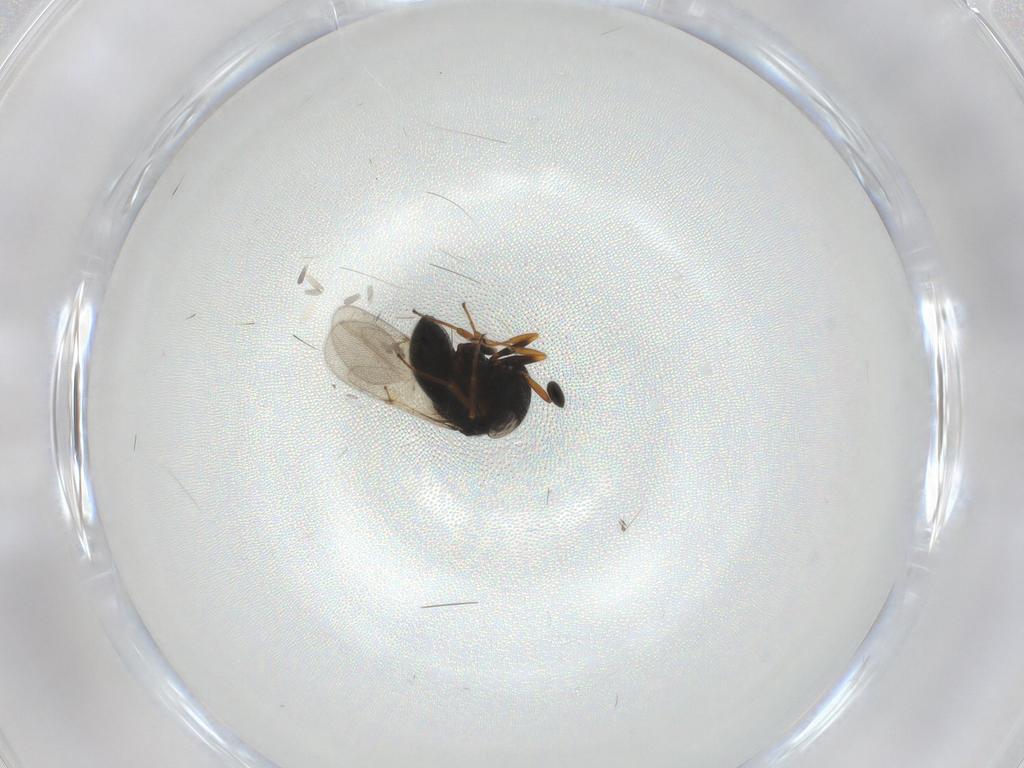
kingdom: Animalia
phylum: Arthropoda
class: Insecta
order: Hymenoptera
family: Scelionidae
